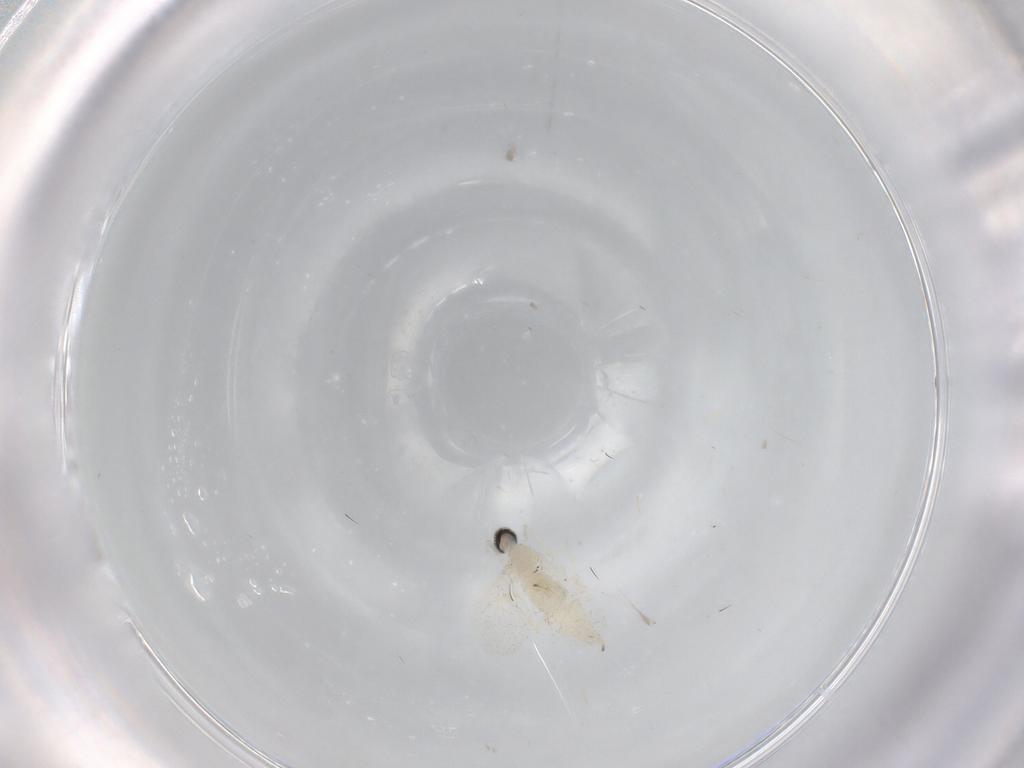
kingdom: Animalia
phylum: Arthropoda
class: Insecta
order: Diptera
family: Cecidomyiidae
